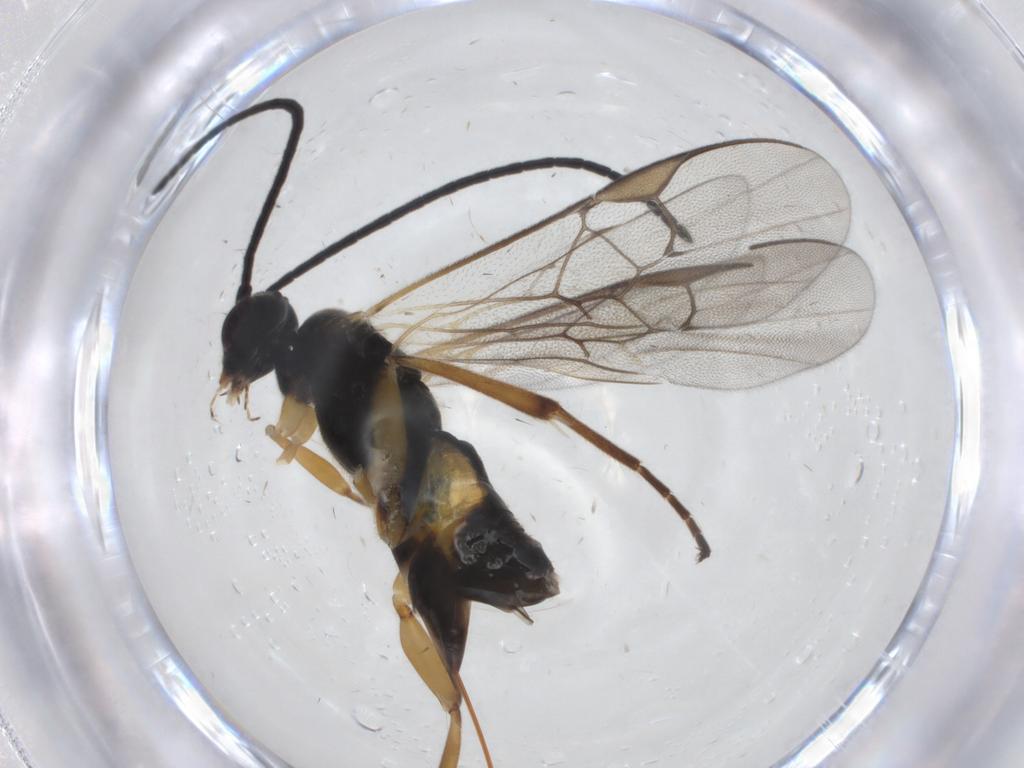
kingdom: Animalia
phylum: Arthropoda
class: Insecta
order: Hymenoptera
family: Braconidae
